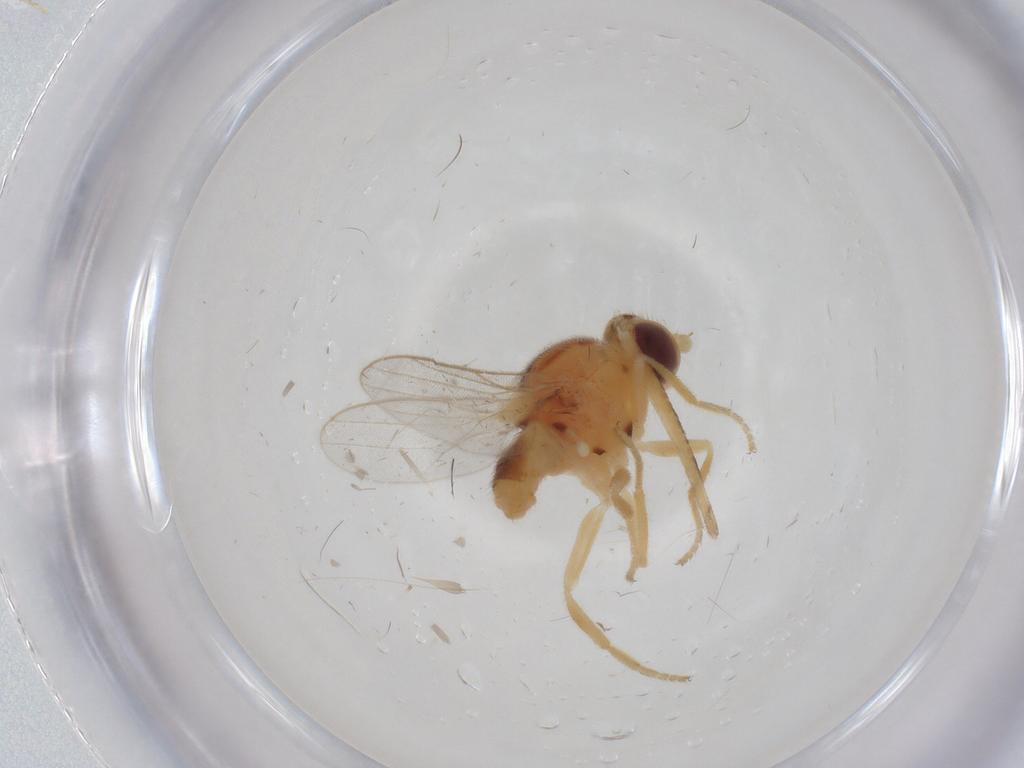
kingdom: Animalia
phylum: Arthropoda
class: Insecta
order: Diptera
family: Chloropidae
